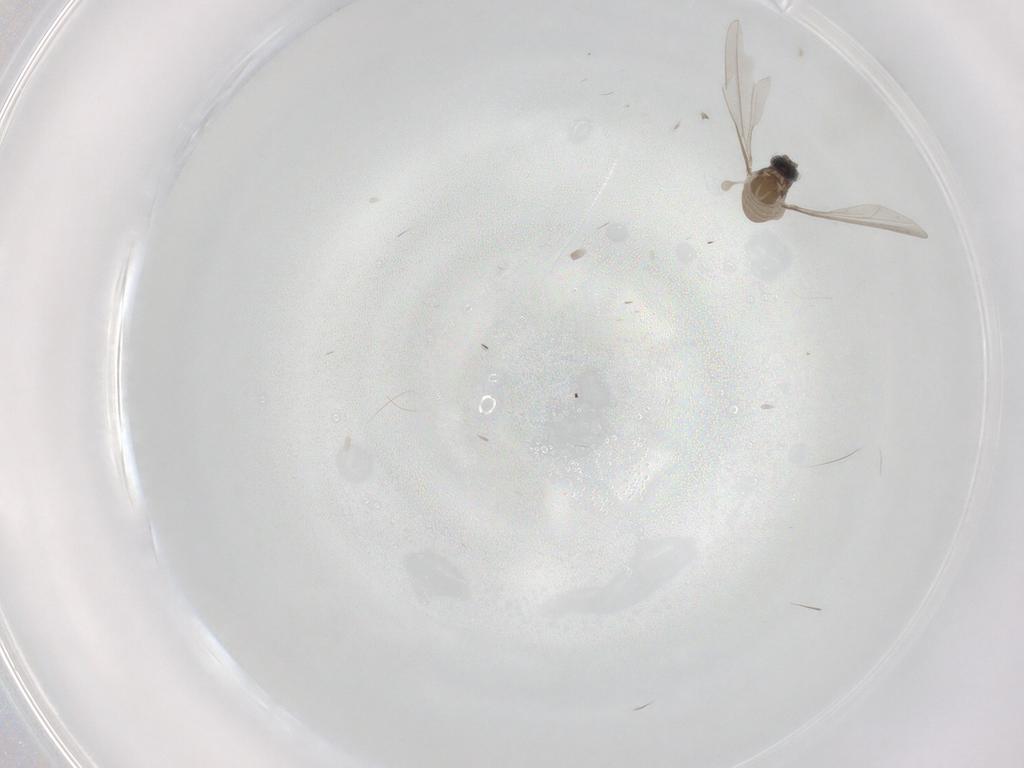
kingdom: Animalia
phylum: Arthropoda
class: Insecta
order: Diptera
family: Cecidomyiidae
